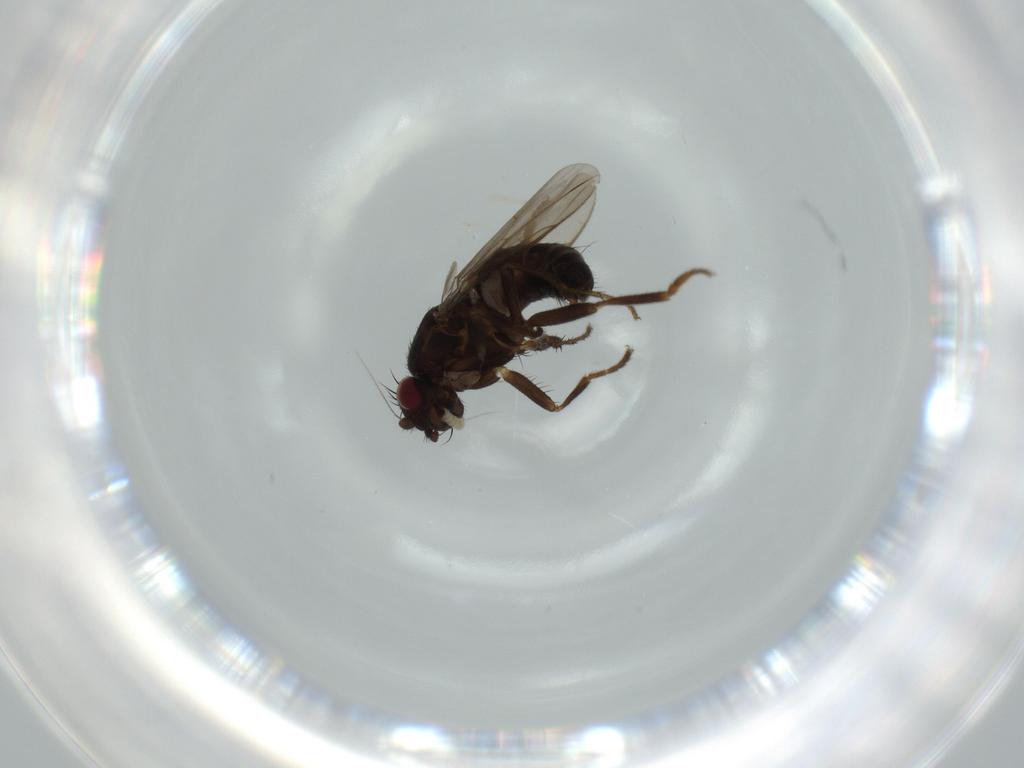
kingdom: Animalia
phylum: Arthropoda
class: Insecta
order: Diptera
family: Sphaeroceridae
